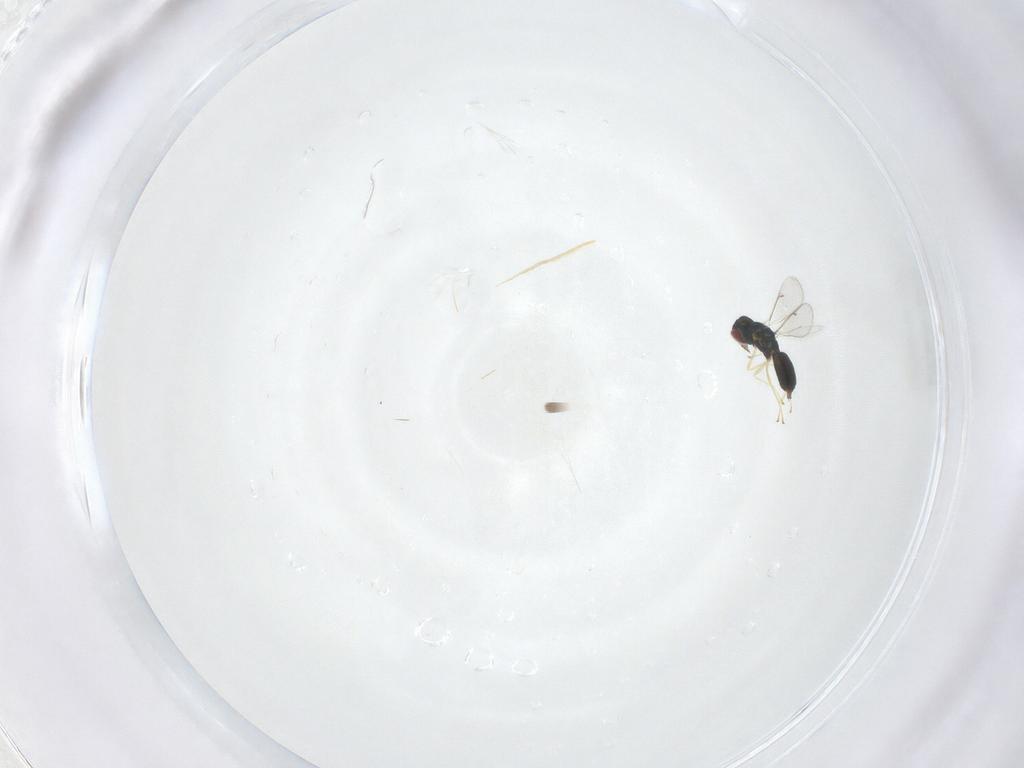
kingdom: Animalia
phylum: Arthropoda
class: Insecta
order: Hymenoptera
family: Eulophidae
